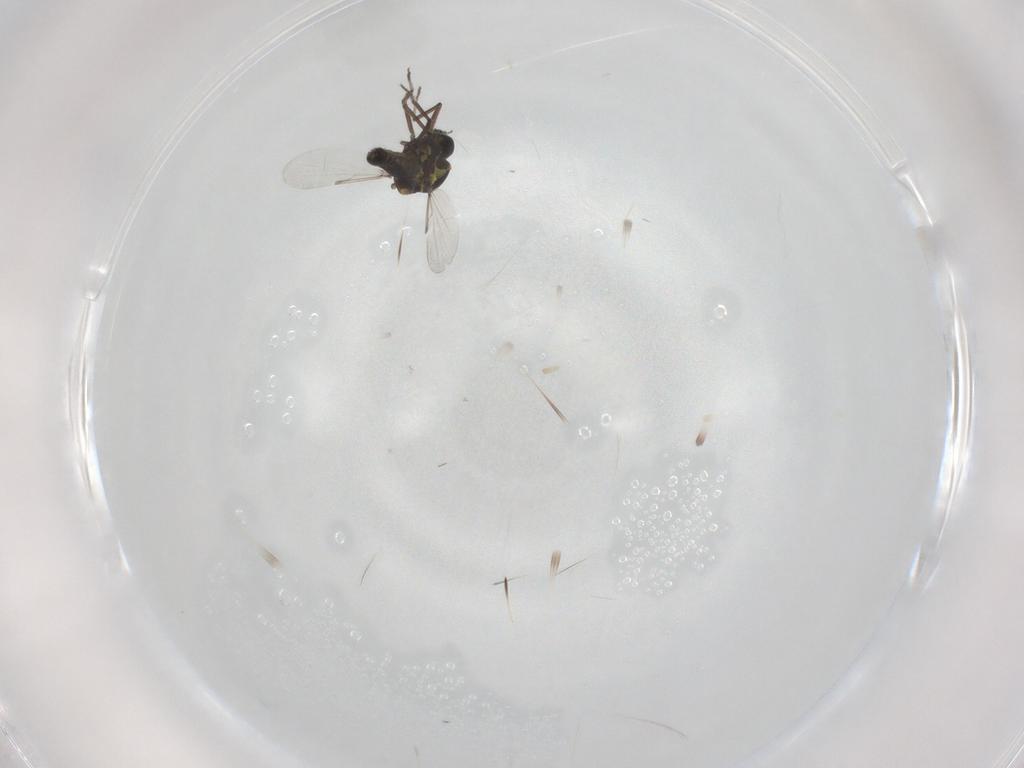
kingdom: Animalia
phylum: Arthropoda
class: Insecta
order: Diptera
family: Ceratopogonidae
